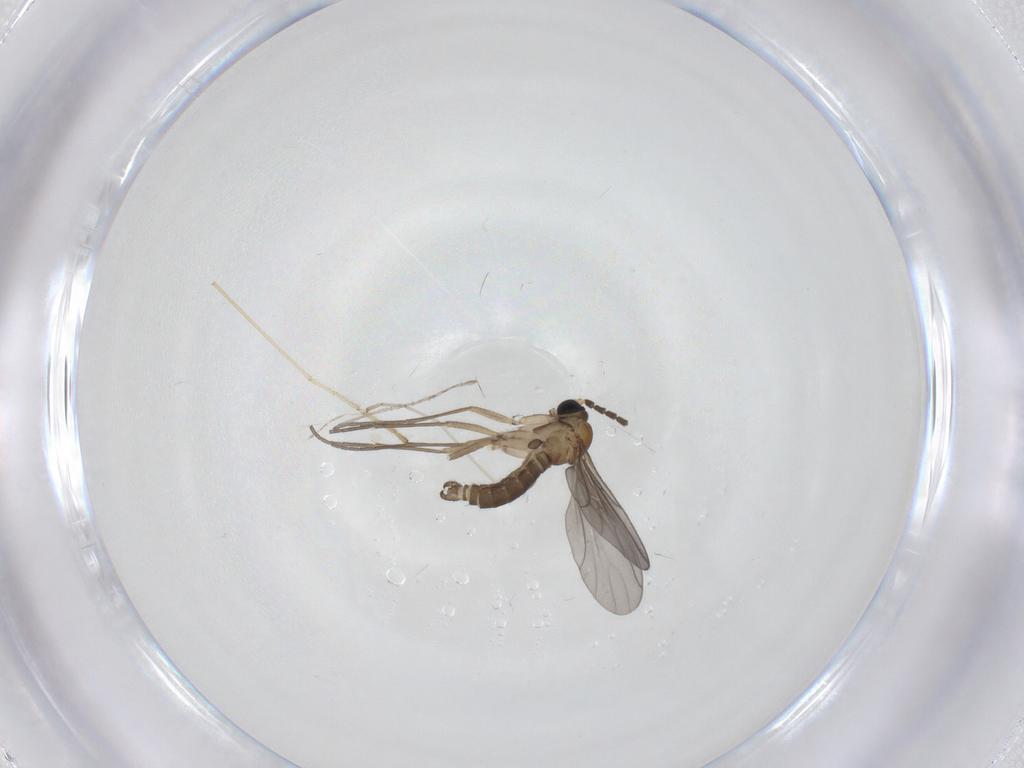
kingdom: Animalia
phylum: Arthropoda
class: Insecta
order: Diptera
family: Sciaridae
